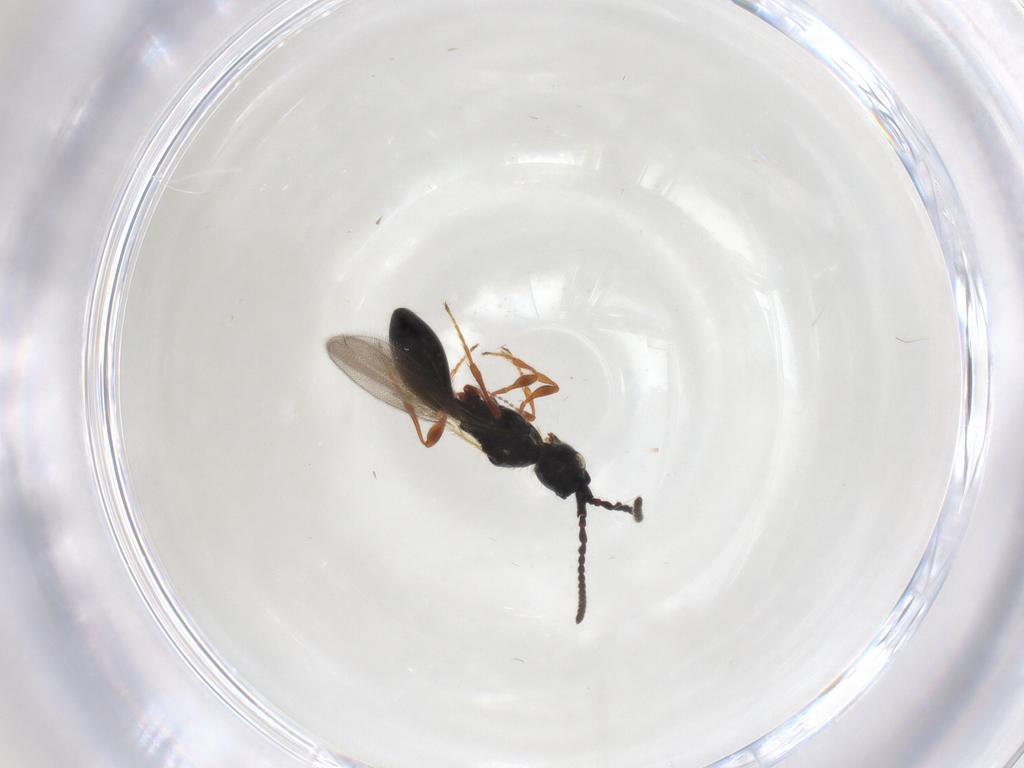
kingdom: Animalia
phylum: Arthropoda
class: Insecta
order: Hymenoptera
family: Diapriidae
